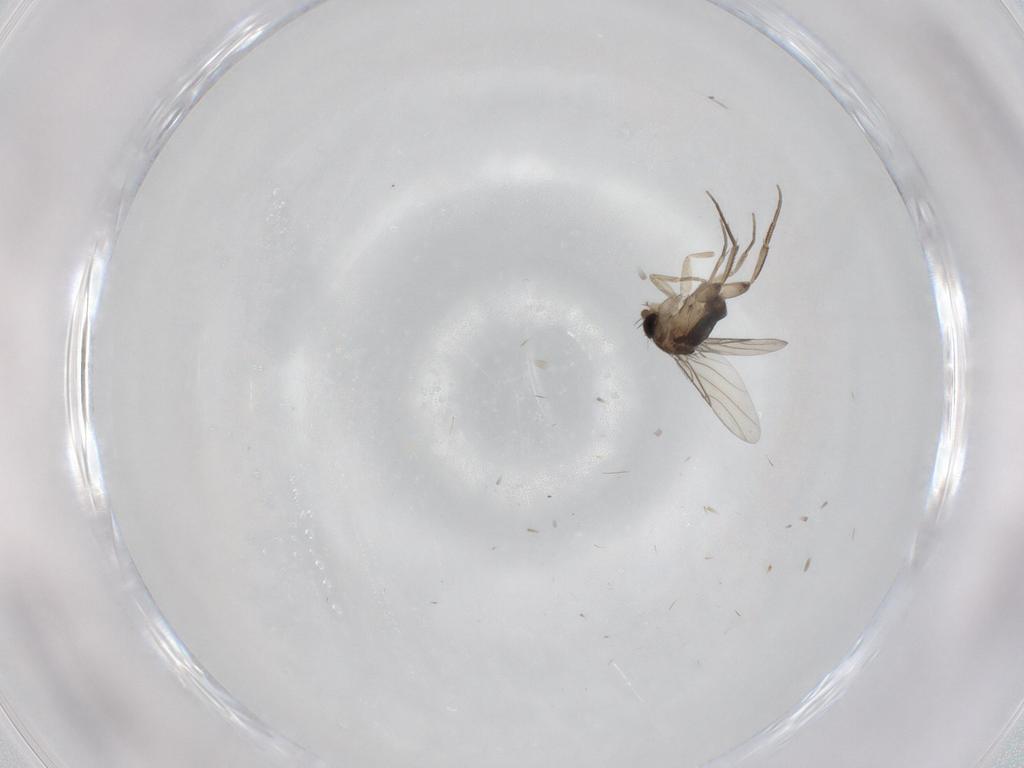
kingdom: Animalia
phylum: Arthropoda
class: Insecta
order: Diptera
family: Phoridae
